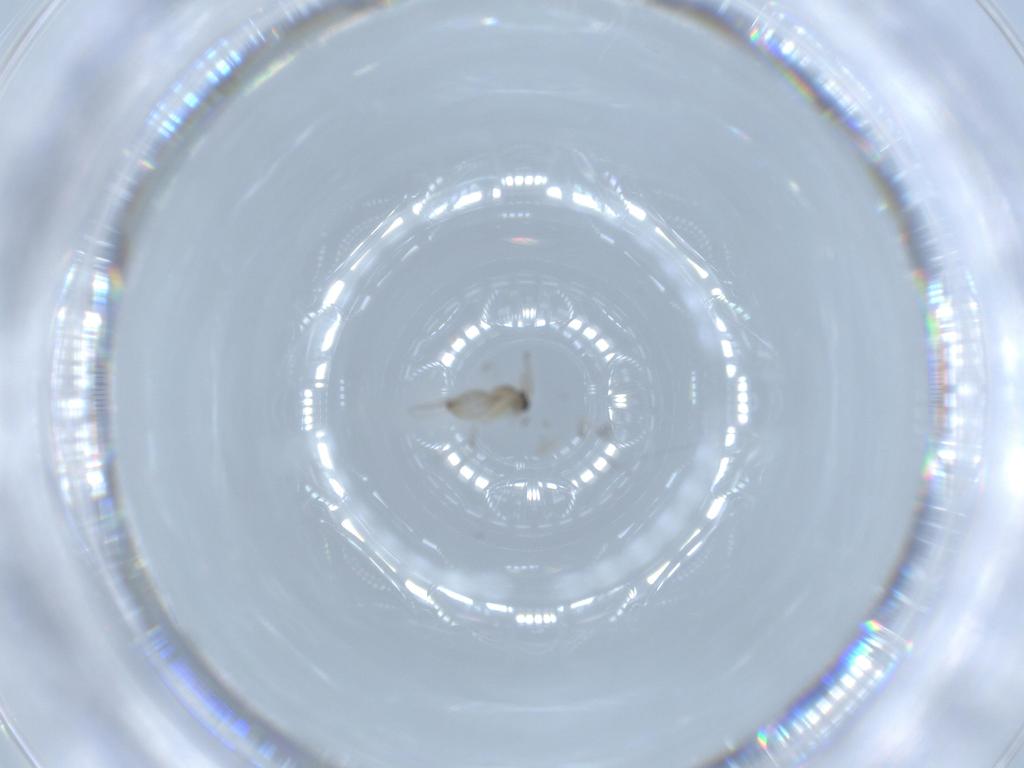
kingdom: Animalia
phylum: Arthropoda
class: Insecta
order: Diptera
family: Cecidomyiidae
